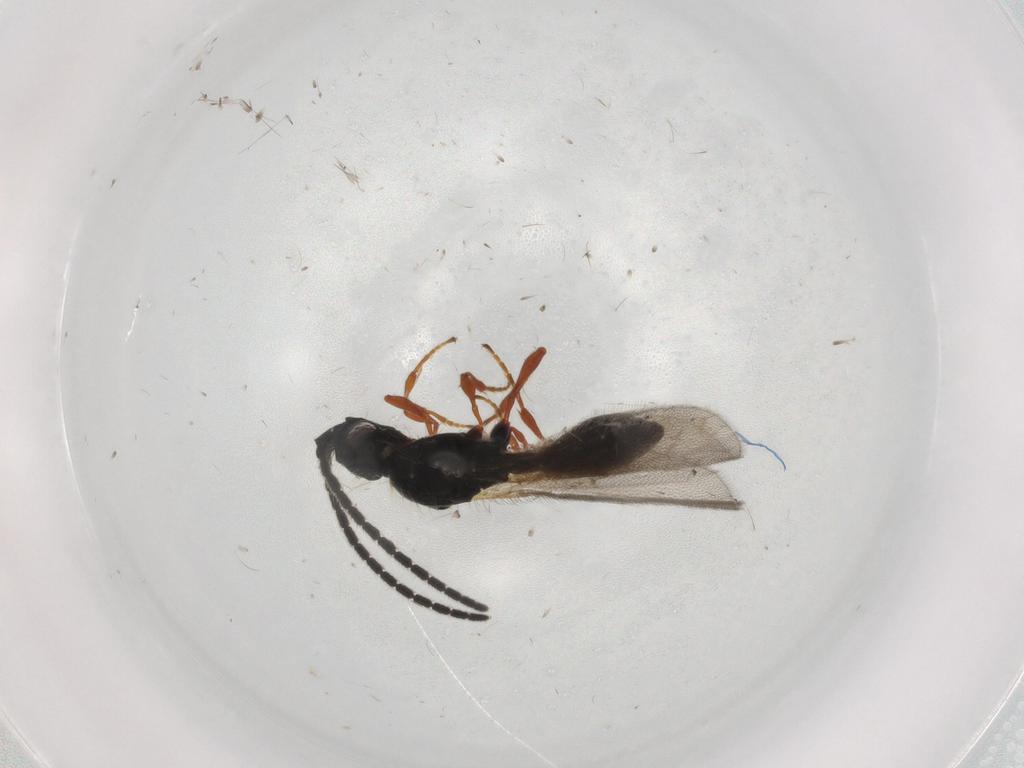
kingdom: Animalia
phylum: Arthropoda
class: Insecta
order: Hymenoptera
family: Diapriidae
